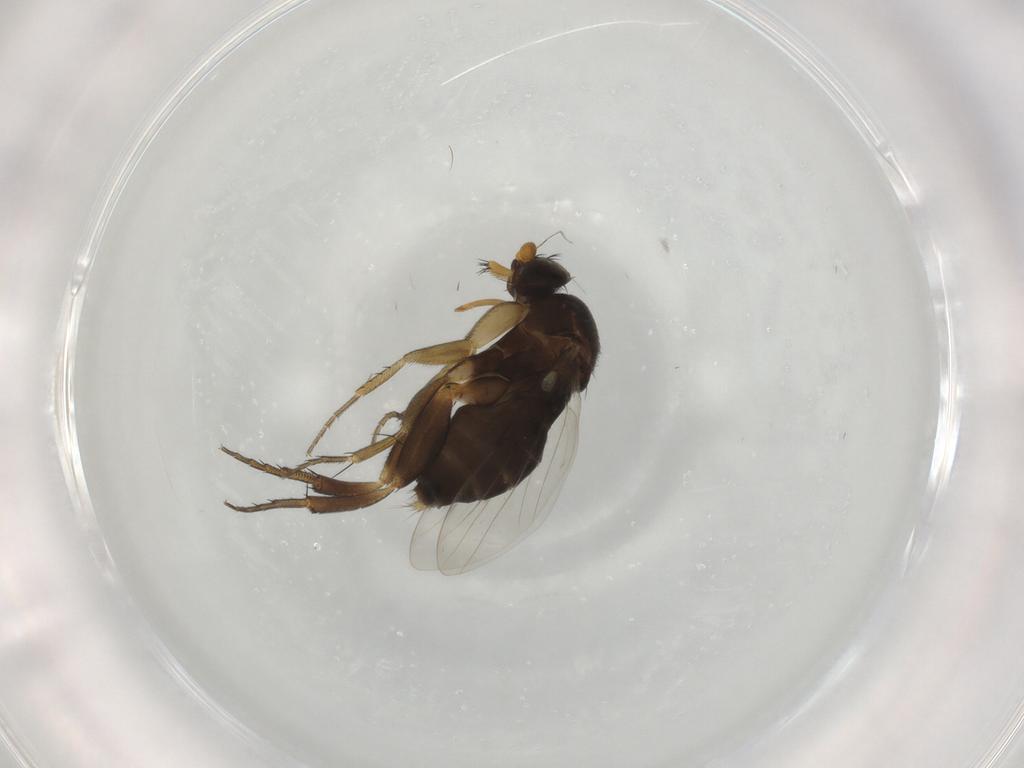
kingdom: Animalia
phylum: Arthropoda
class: Insecta
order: Diptera
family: Phoridae
